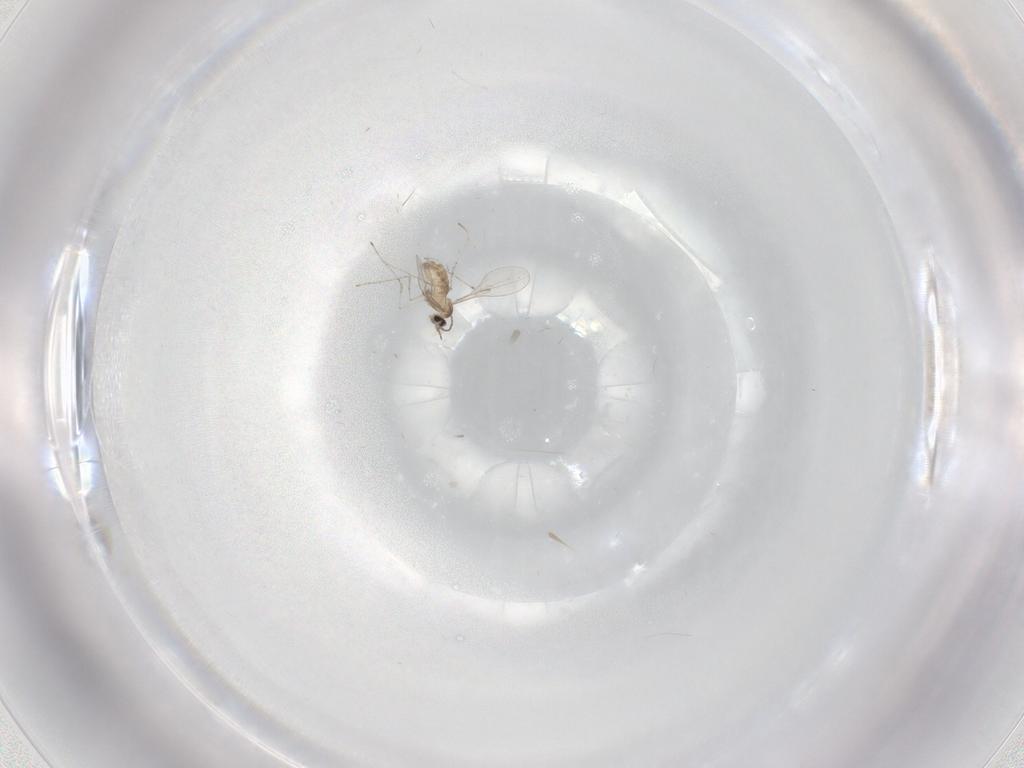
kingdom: Animalia
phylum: Arthropoda
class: Insecta
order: Diptera
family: Cecidomyiidae
